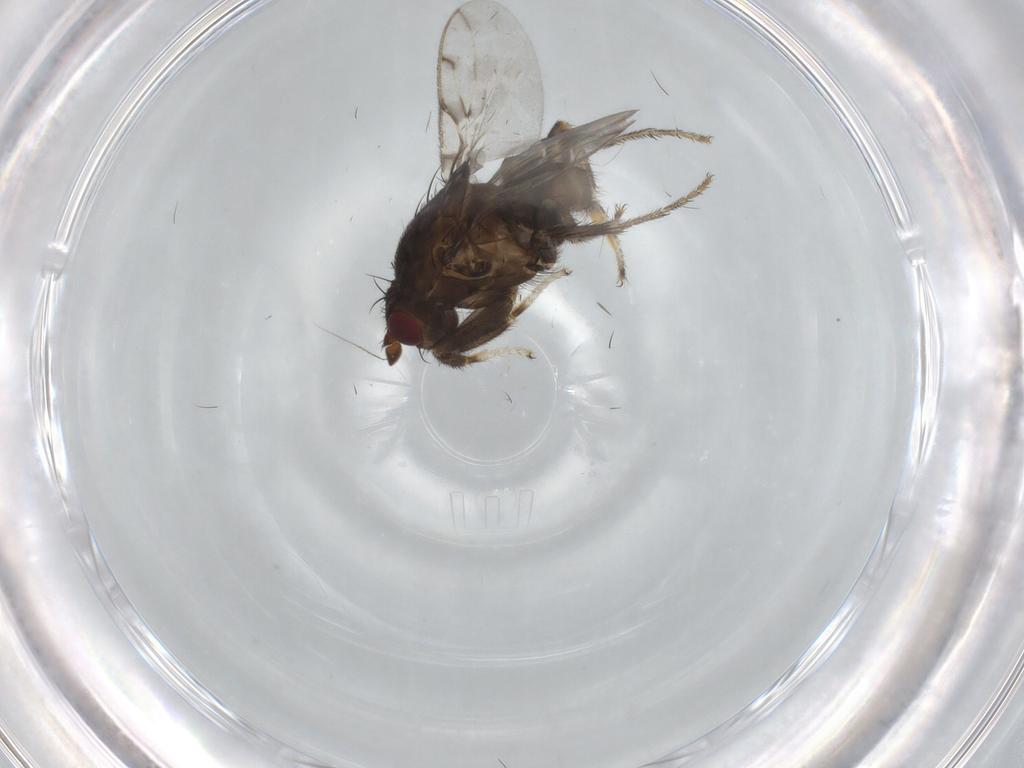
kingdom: Animalia
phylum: Arthropoda
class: Insecta
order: Diptera
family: Sphaeroceridae
